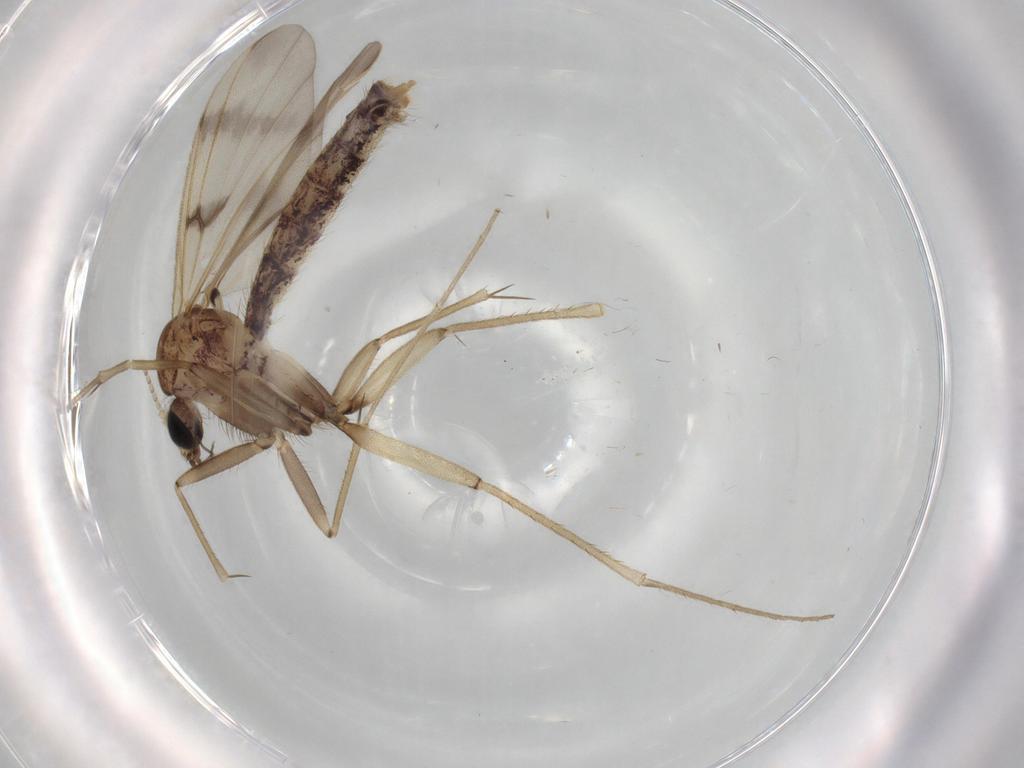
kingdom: Animalia
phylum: Arthropoda
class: Insecta
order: Diptera
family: Mycetophilidae
